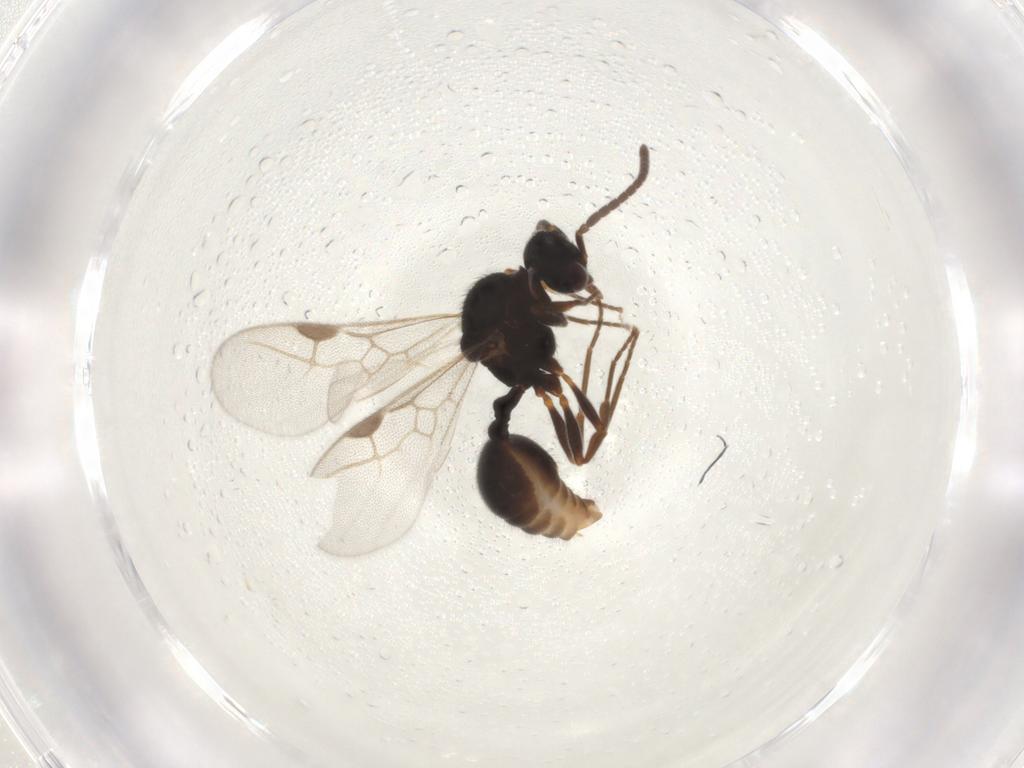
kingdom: Animalia
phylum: Arthropoda
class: Insecta
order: Hymenoptera
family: Formicidae
